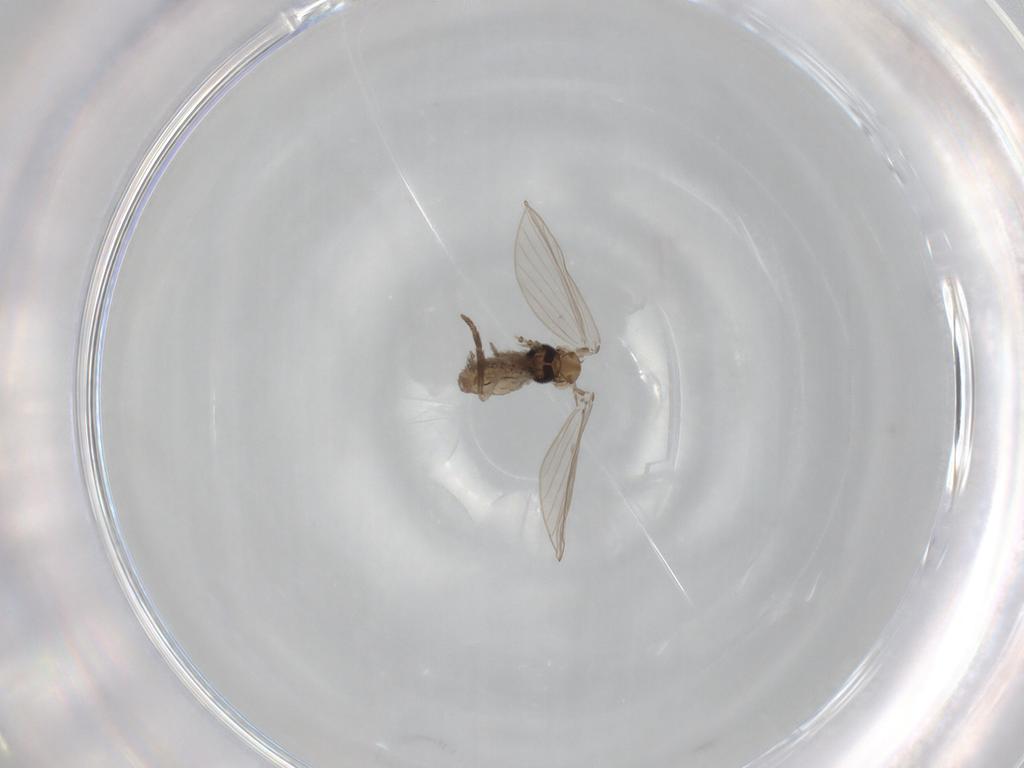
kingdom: Animalia
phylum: Arthropoda
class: Insecta
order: Diptera
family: Psychodidae
